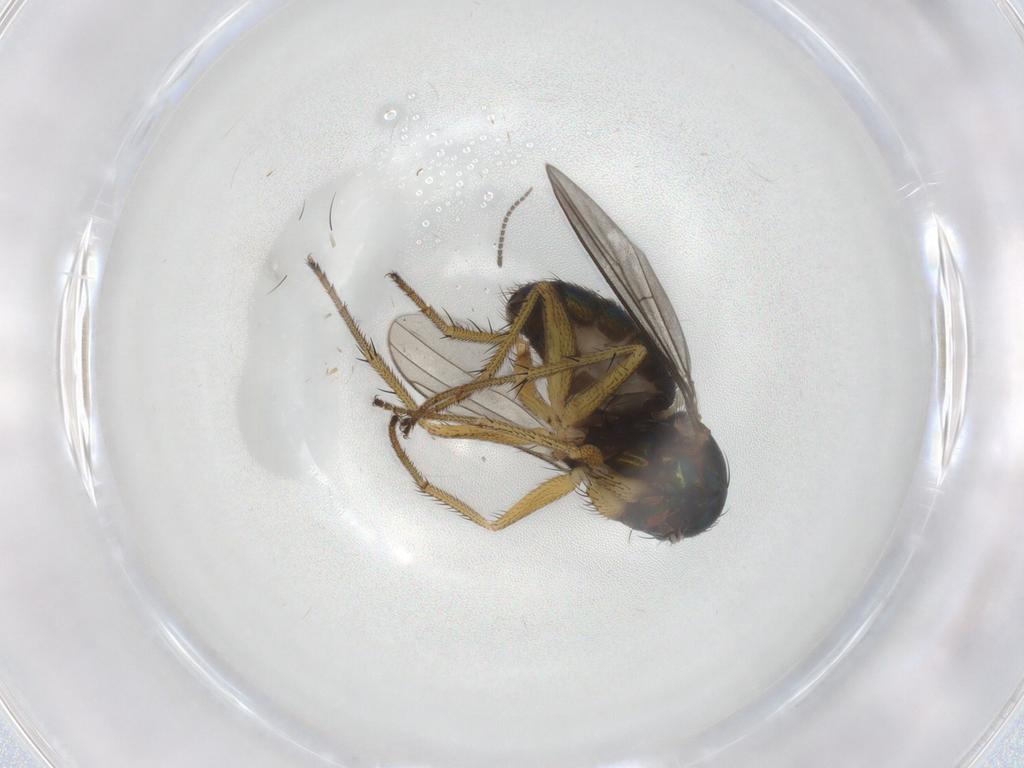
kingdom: Animalia
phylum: Arthropoda
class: Insecta
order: Diptera
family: Dolichopodidae
